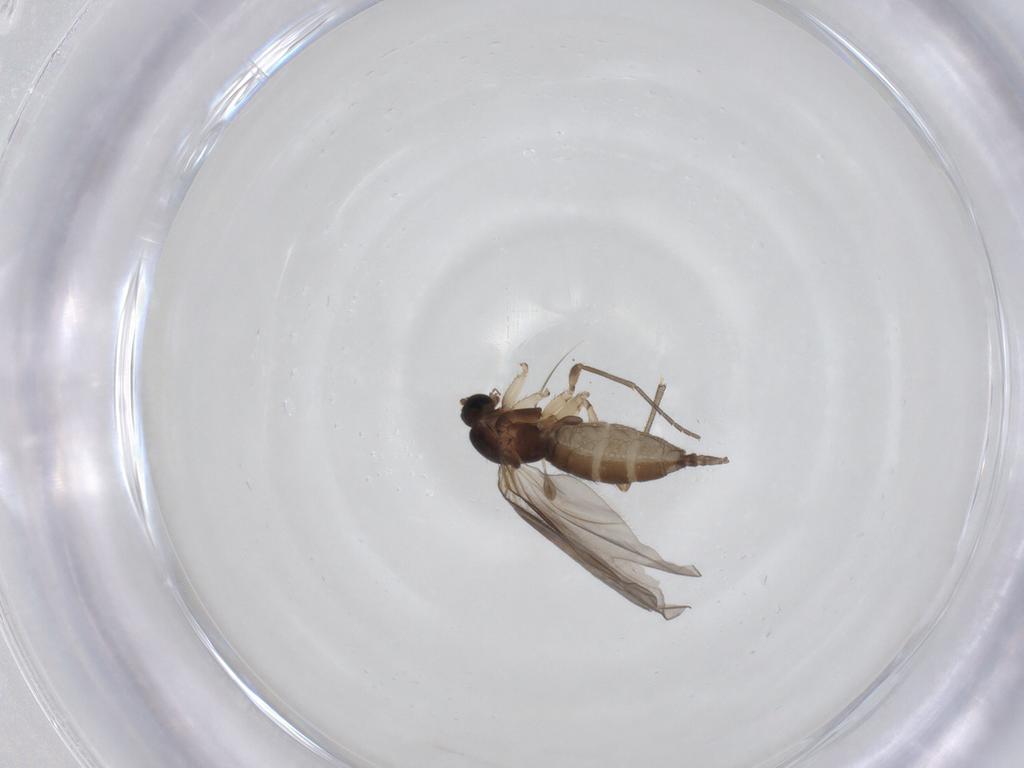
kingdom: Animalia
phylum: Arthropoda
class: Insecta
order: Diptera
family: Sciaridae
